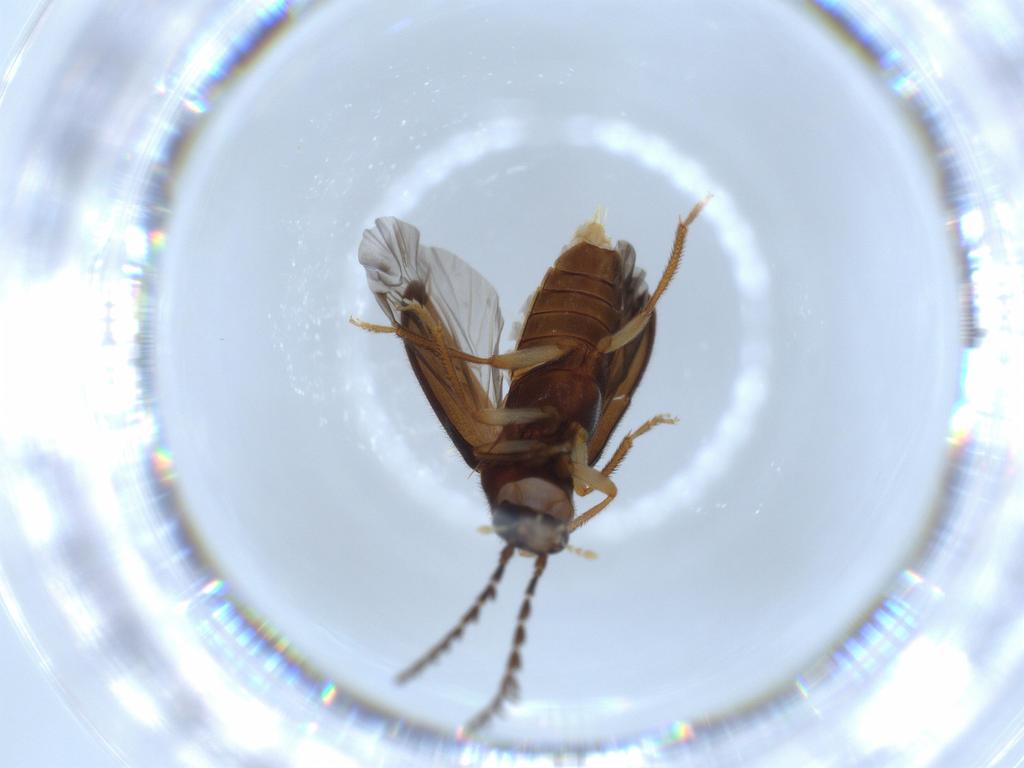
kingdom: Animalia
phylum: Arthropoda
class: Insecta
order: Coleoptera
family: Ptilodactylidae
